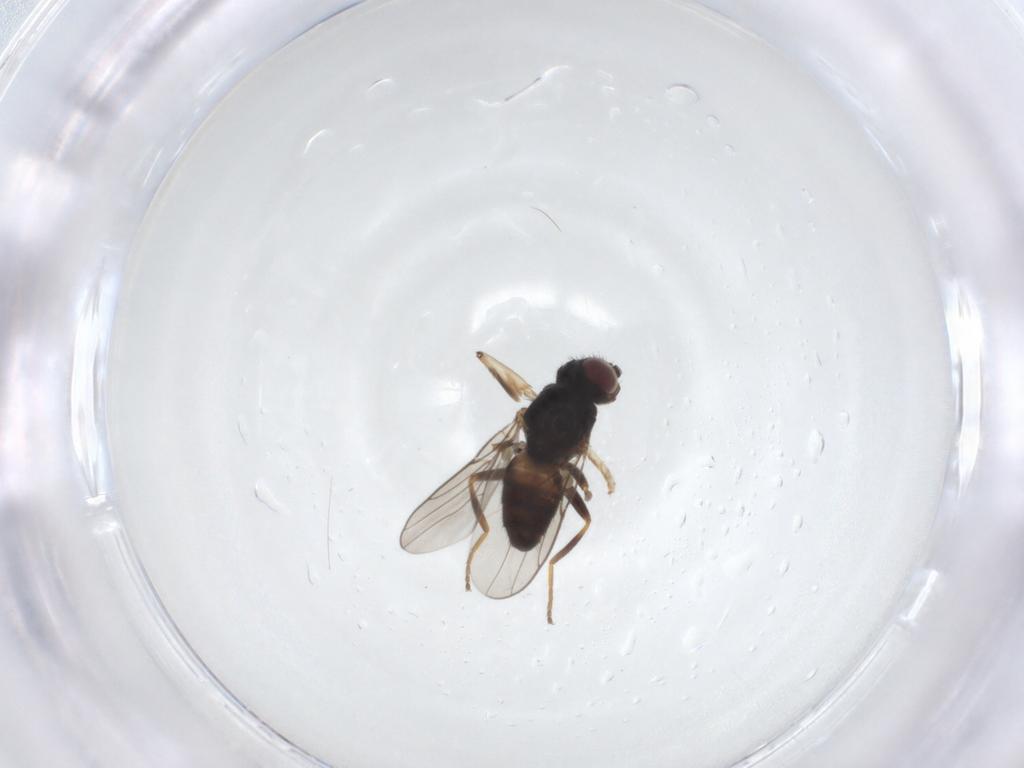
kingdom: Animalia
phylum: Arthropoda
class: Insecta
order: Diptera
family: Chloropidae
